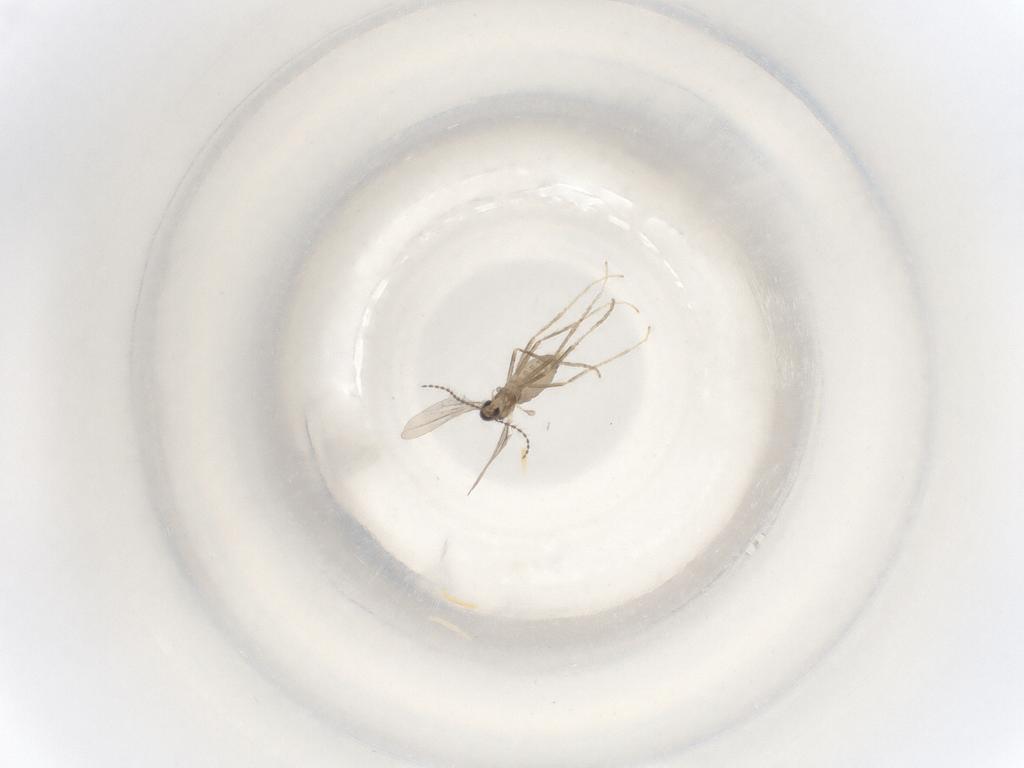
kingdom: Animalia
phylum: Arthropoda
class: Insecta
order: Diptera
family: Cecidomyiidae
